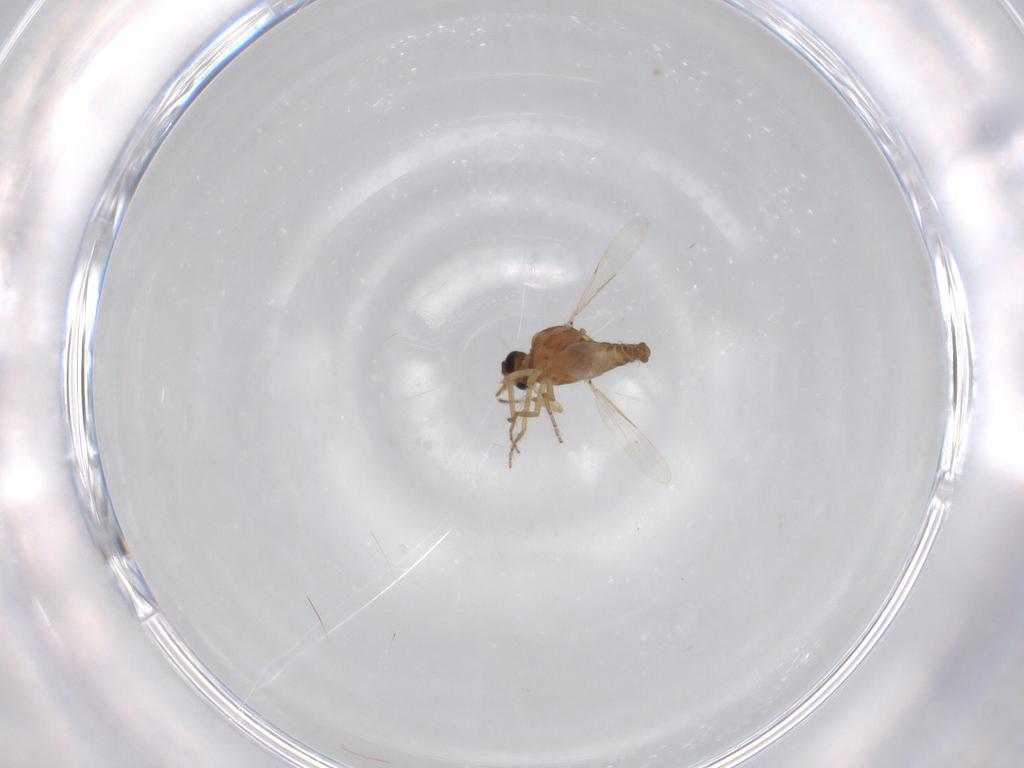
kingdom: Animalia
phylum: Arthropoda
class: Insecta
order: Diptera
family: Ceratopogonidae
